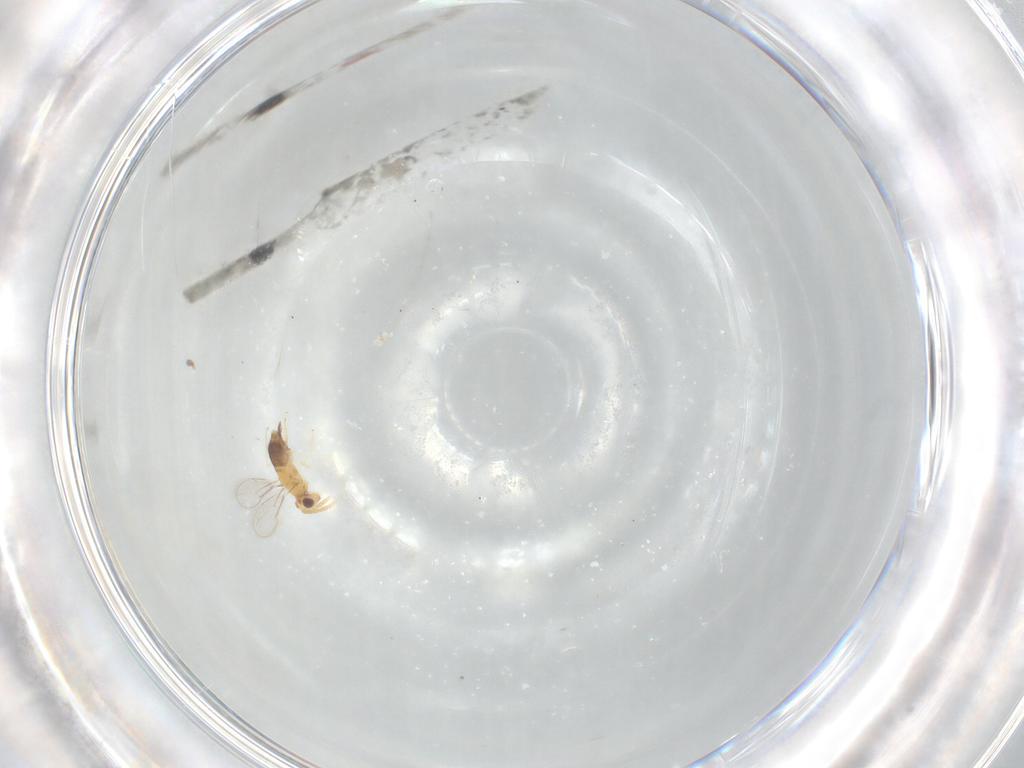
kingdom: Animalia
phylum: Arthropoda
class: Insecta
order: Hymenoptera
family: Aphelinidae
